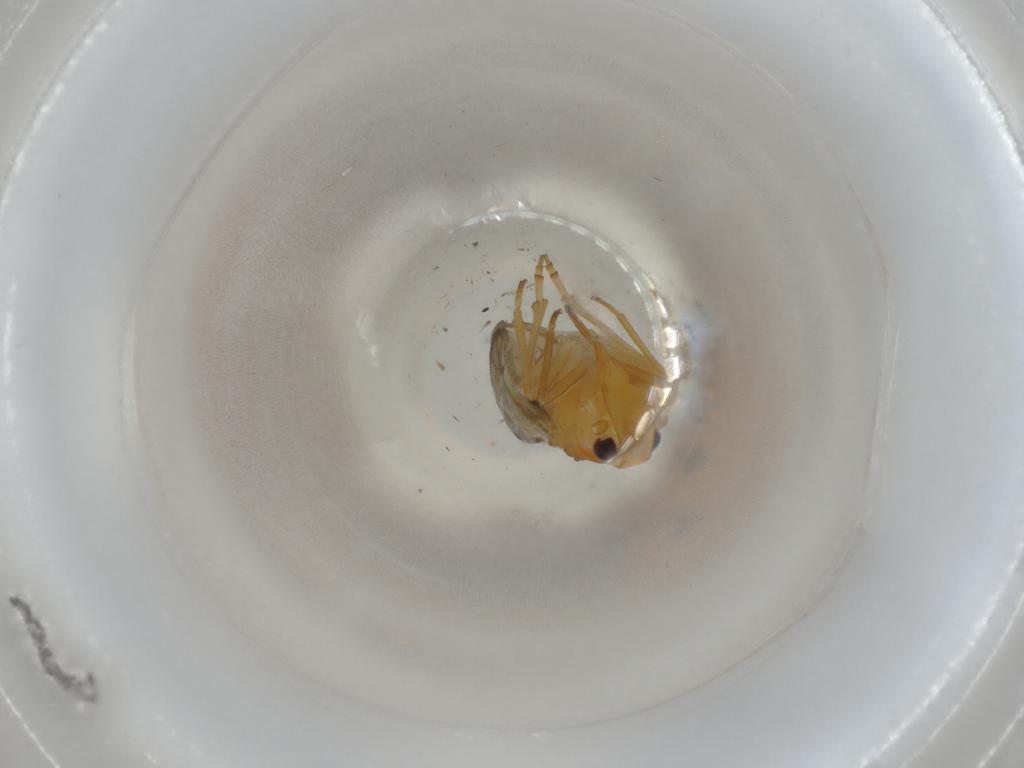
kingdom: Animalia
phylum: Arthropoda
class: Insecta
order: Hymenoptera
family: Dryinidae
